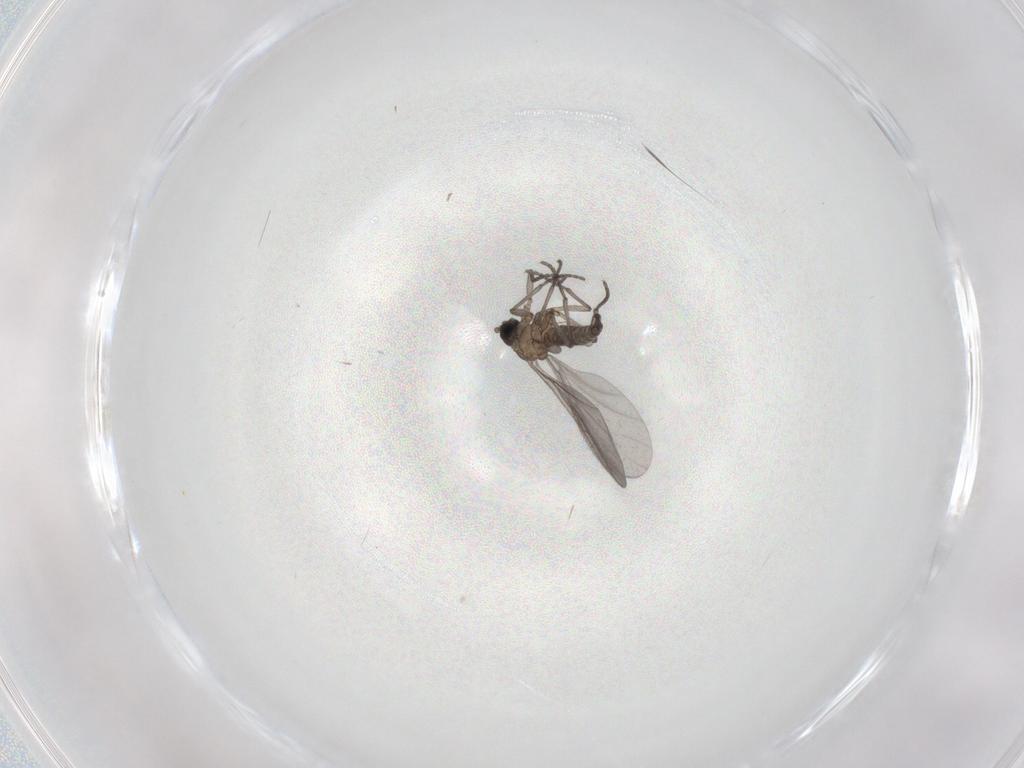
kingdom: Animalia
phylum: Arthropoda
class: Insecta
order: Diptera
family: Sciaridae
